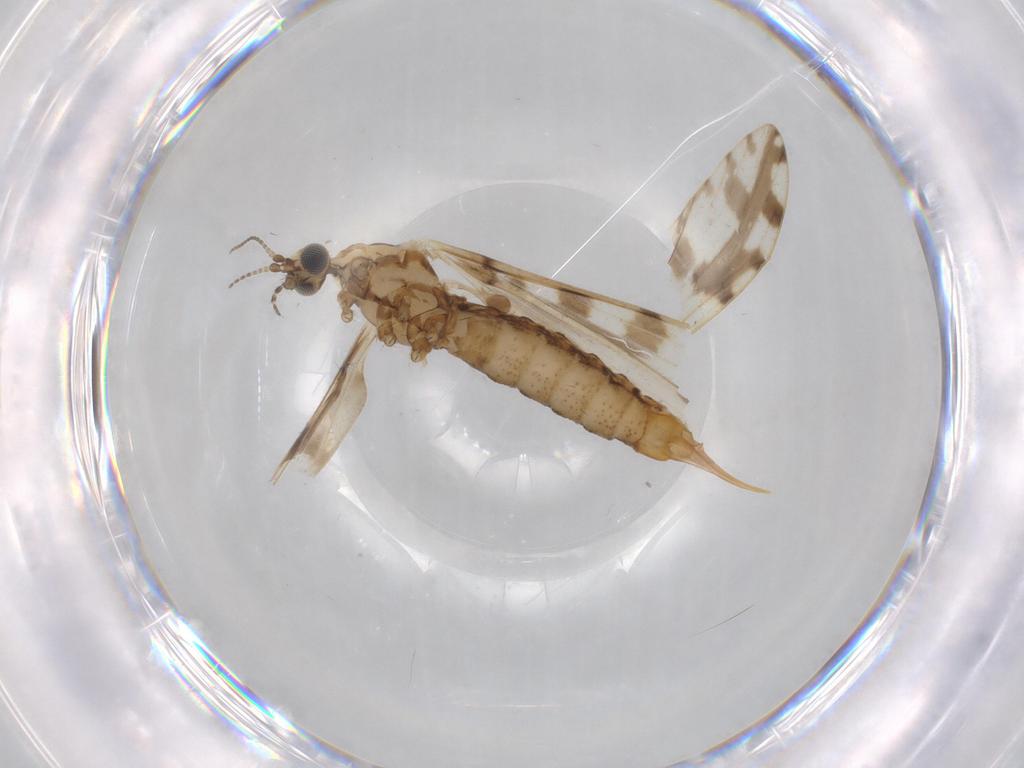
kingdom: Animalia
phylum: Arthropoda
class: Insecta
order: Diptera
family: Limoniidae
